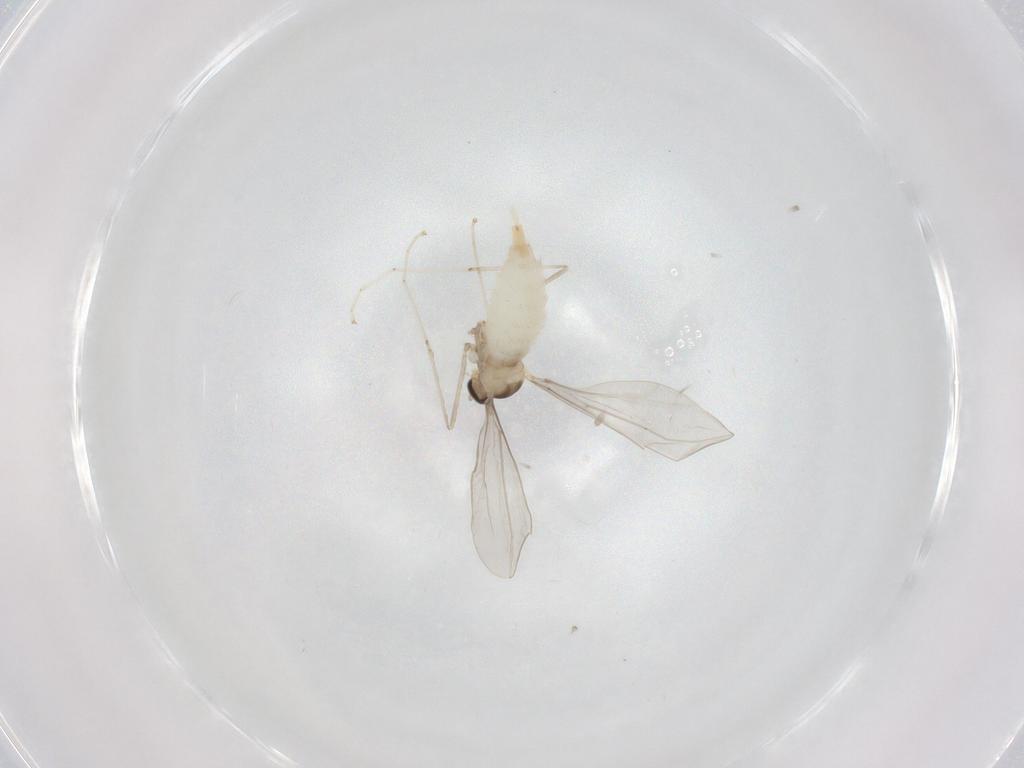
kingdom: Animalia
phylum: Arthropoda
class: Insecta
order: Diptera
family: Cecidomyiidae
